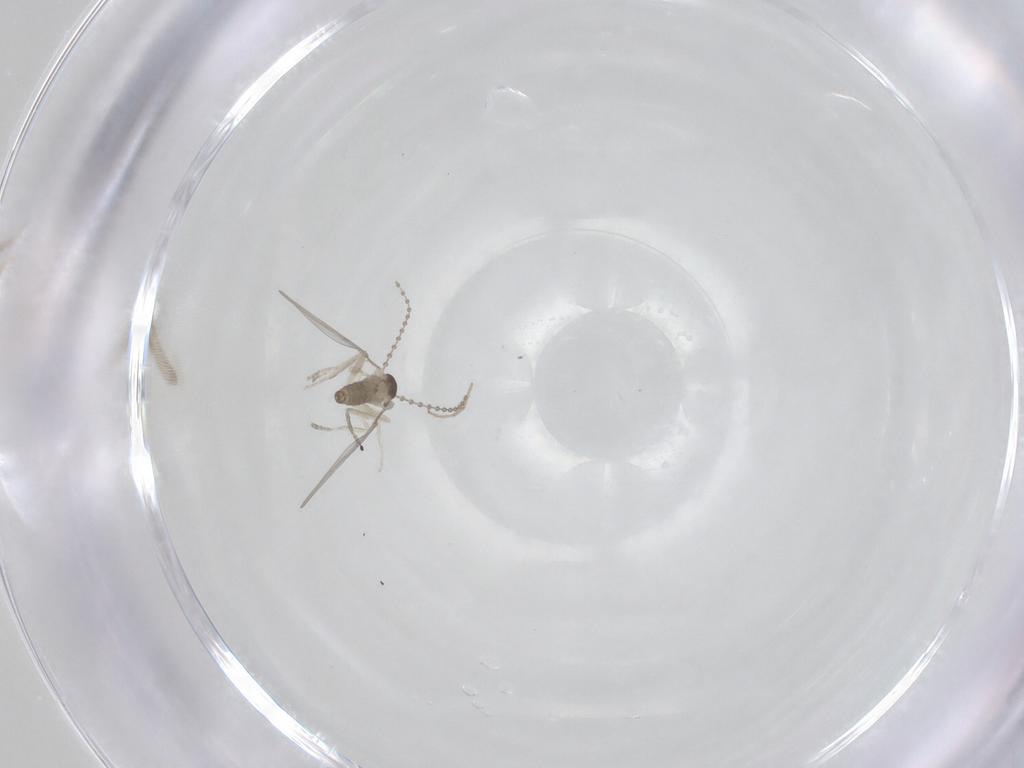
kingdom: Animalia
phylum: Arthropoda
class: Insecta
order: Diptera
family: Cecidomyiidae
